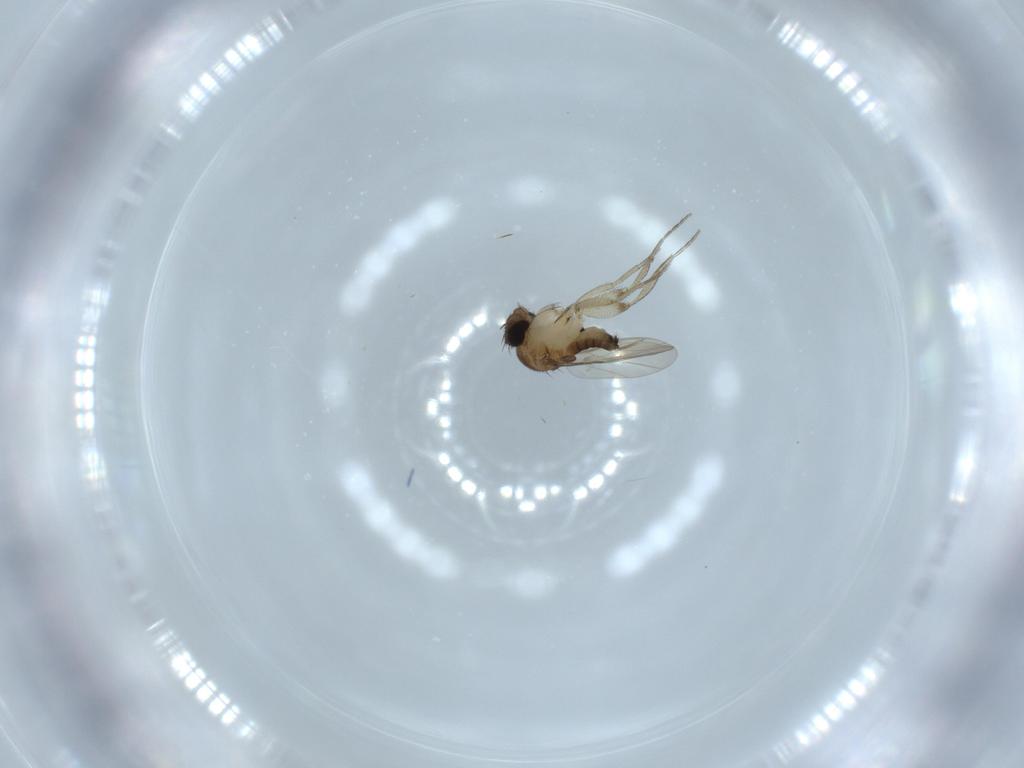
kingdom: Animalia
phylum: Arthropoda
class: Insecta
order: Diptera
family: Phoridae
